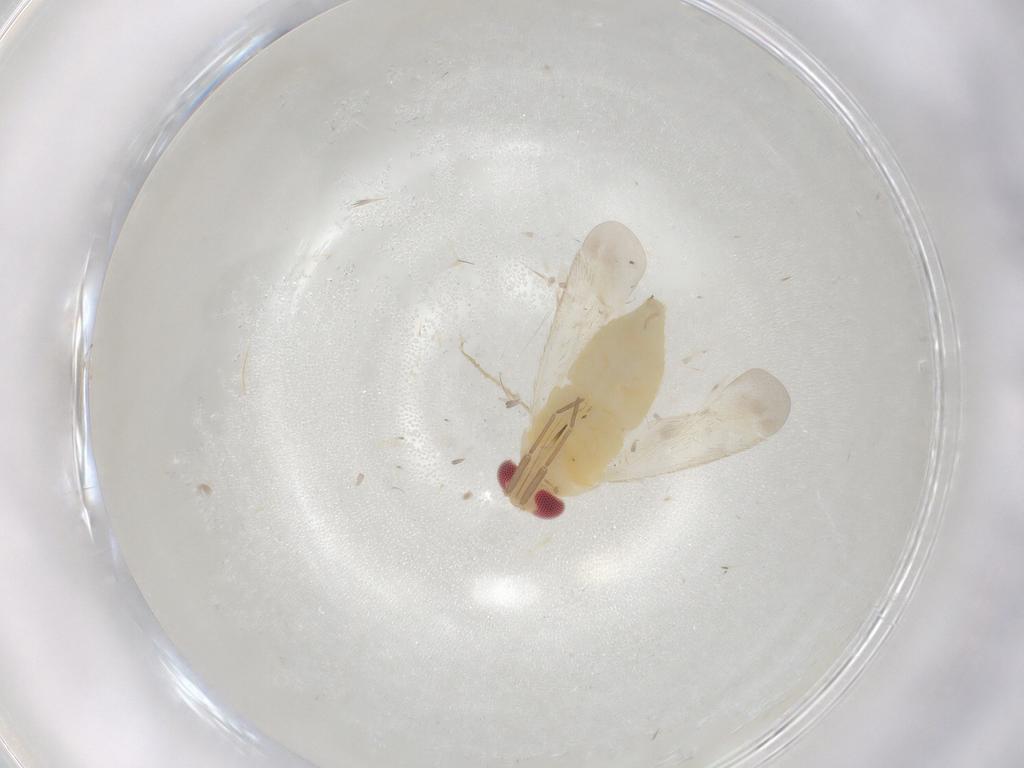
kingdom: Animalia
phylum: Arthropoda
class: Insecta
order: Hemiptera
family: Miridae
